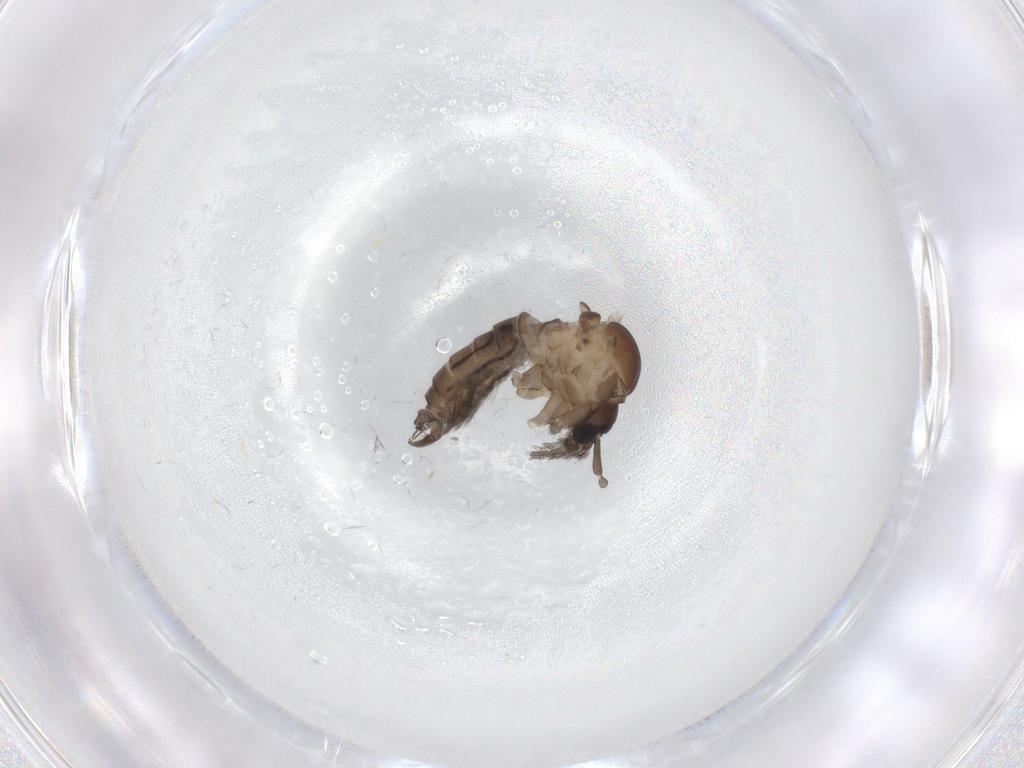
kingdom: Animalia
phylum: Arthropoda
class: Insecta
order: Diptera
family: Psychodidae
